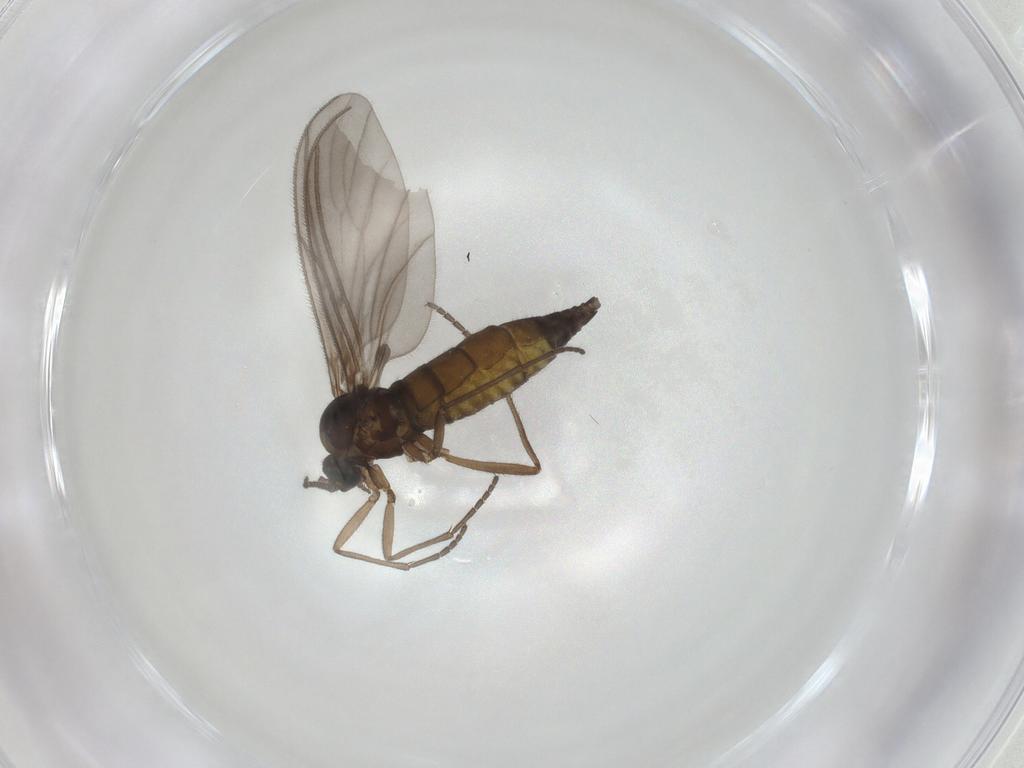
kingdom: Animalia
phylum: Arthropoda
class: Insecta
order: Diptera
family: Sciaridae
